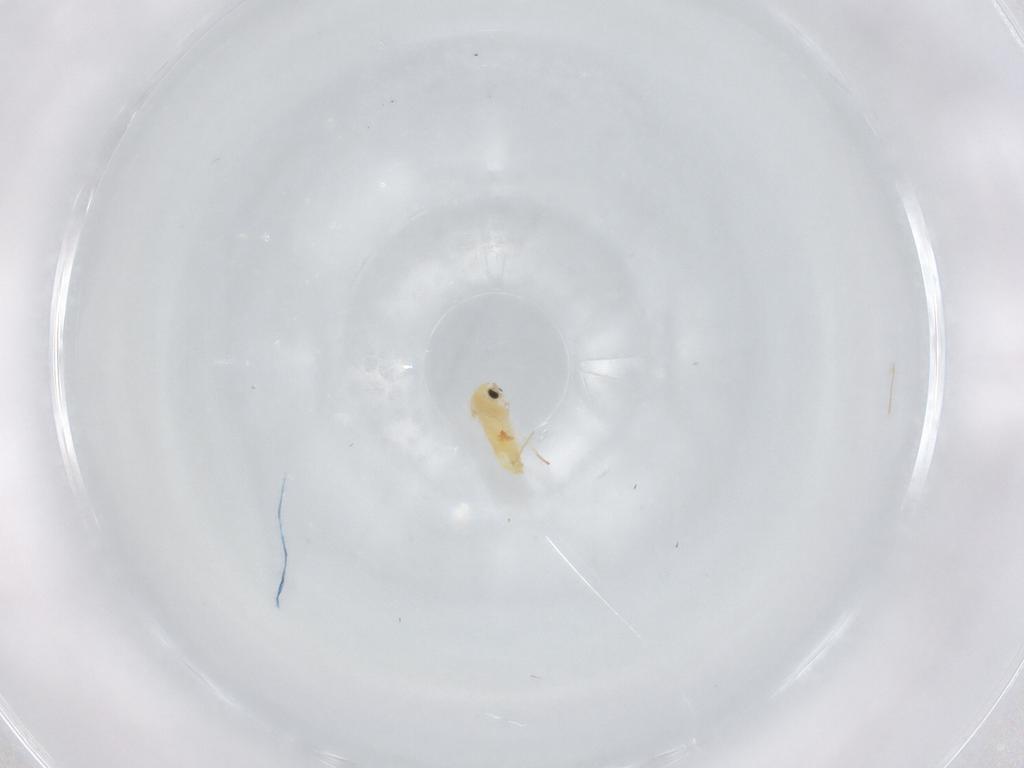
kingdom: Animalia
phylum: Arthropoda
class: Insecta
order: Diptera
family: Chironomidae
